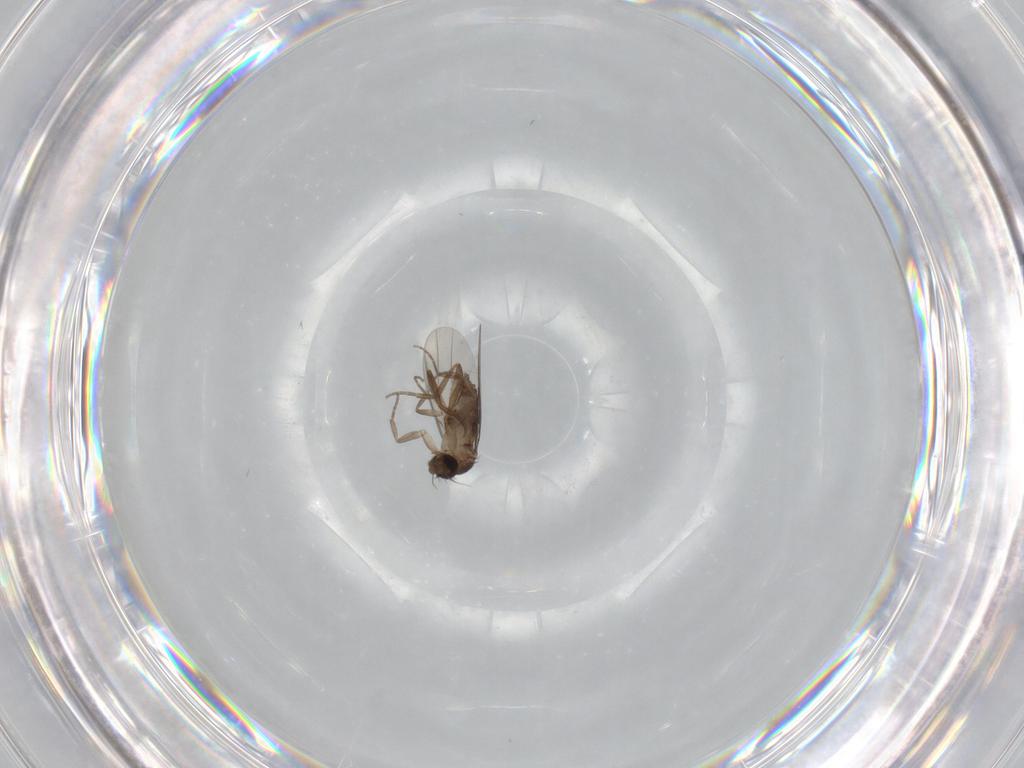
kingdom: Animalia
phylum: Arthropoda
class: Insecta
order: Diptera
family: Phoridae
